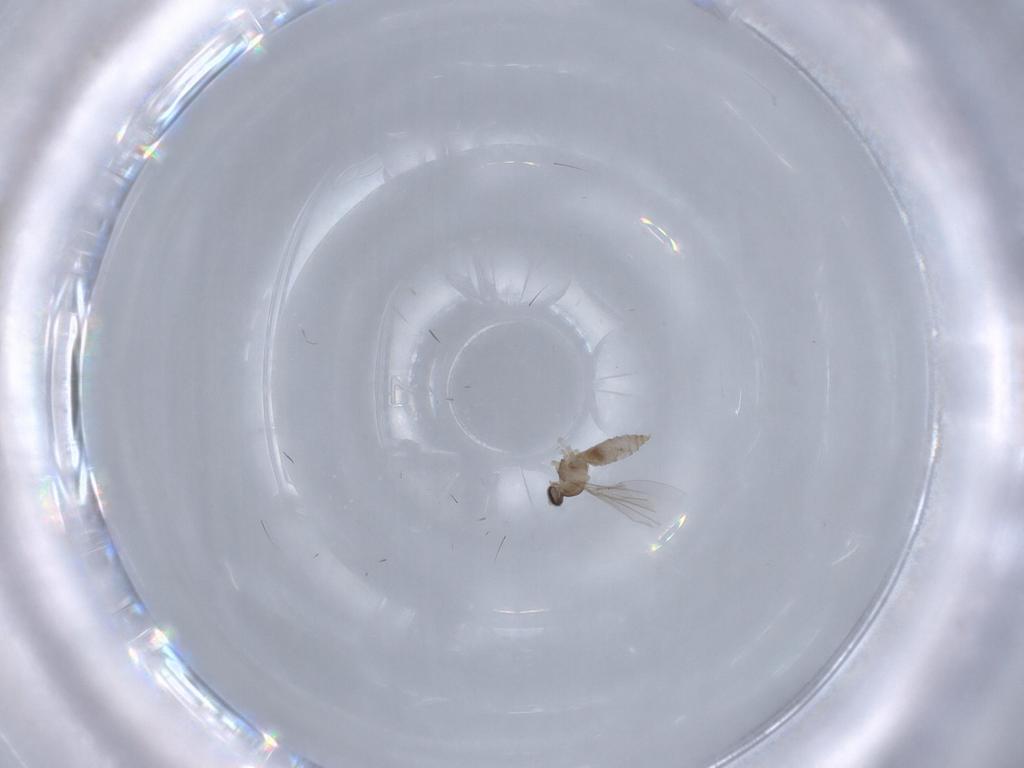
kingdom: Animalia
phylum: Arthropoda
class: Insecta
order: Diptera
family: Cecidomyiidae
